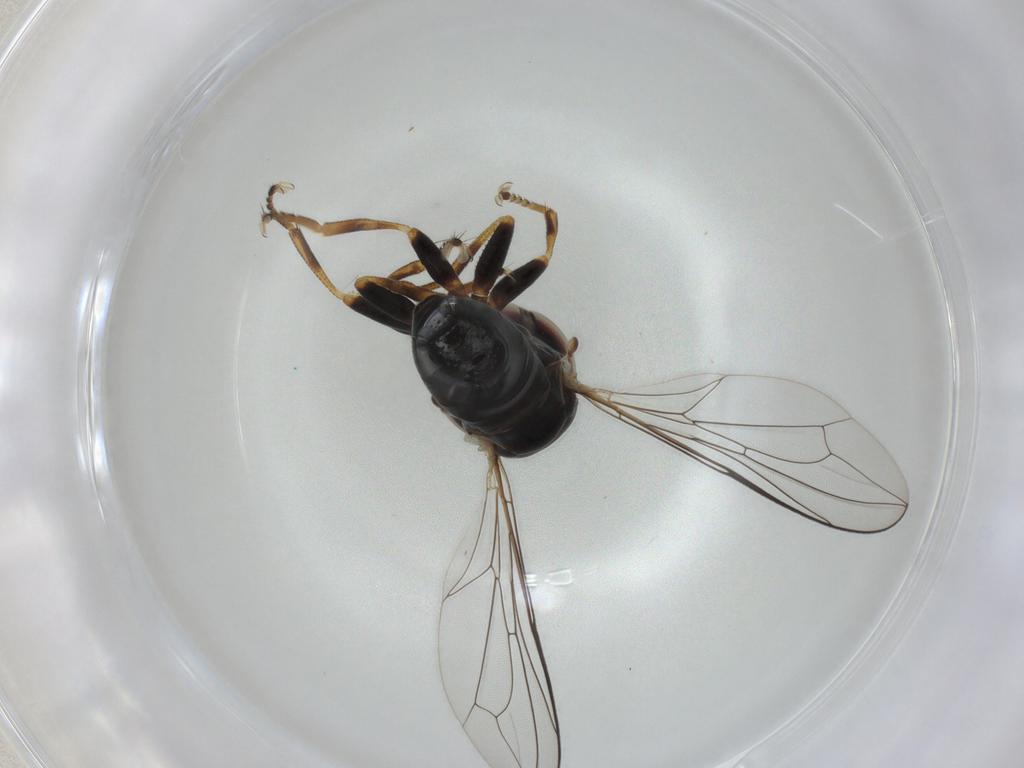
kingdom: Animalia
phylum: Arthropoda
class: Insecta
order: Diptera
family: Pipunculidae
